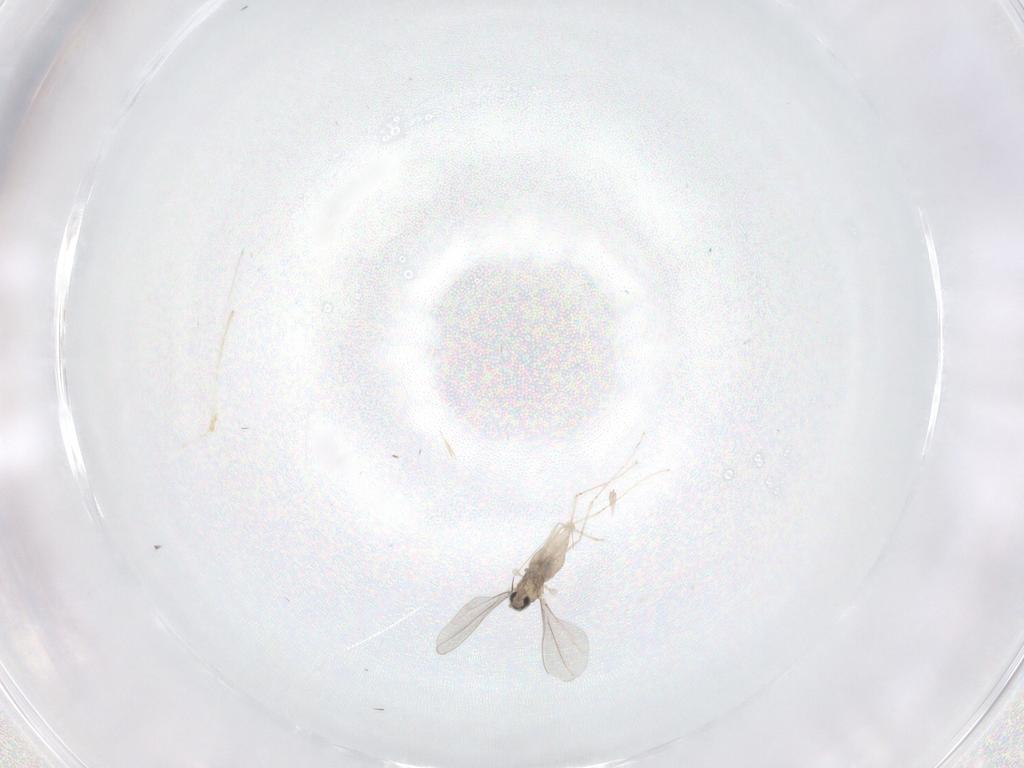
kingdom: Animalia
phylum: Arthropoda
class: Insecta
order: Diptera
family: Cecidomyiidae
